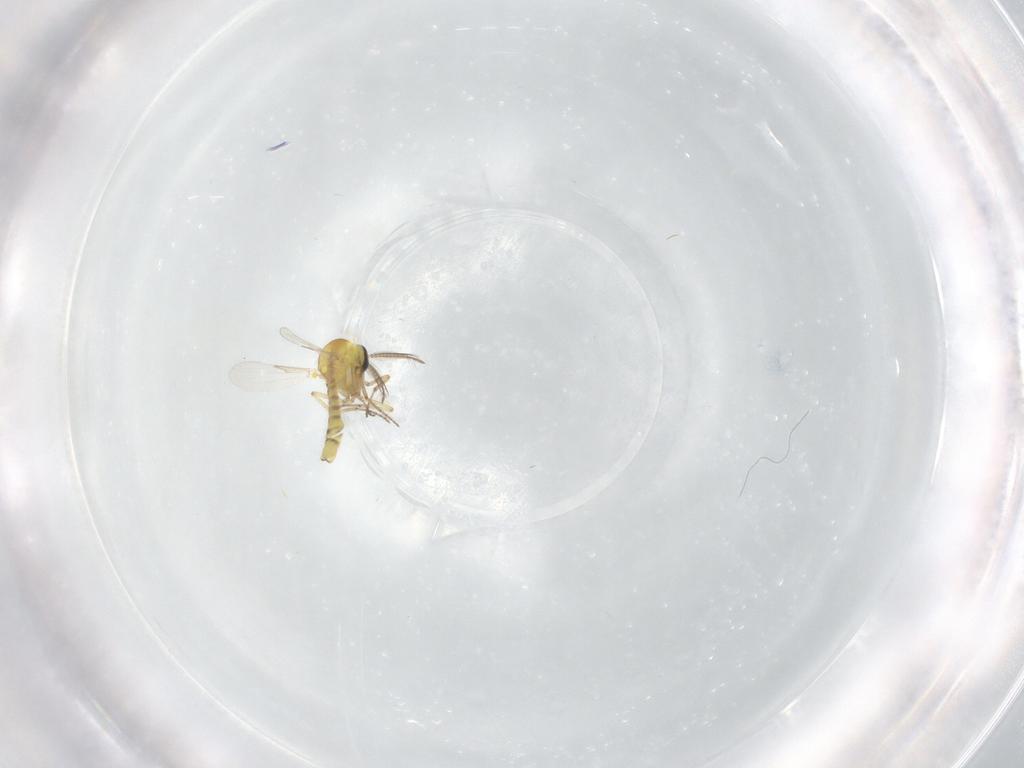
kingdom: Animalia
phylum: Arthropoda
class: Insecta
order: Diptera
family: Ceratopogonidae
